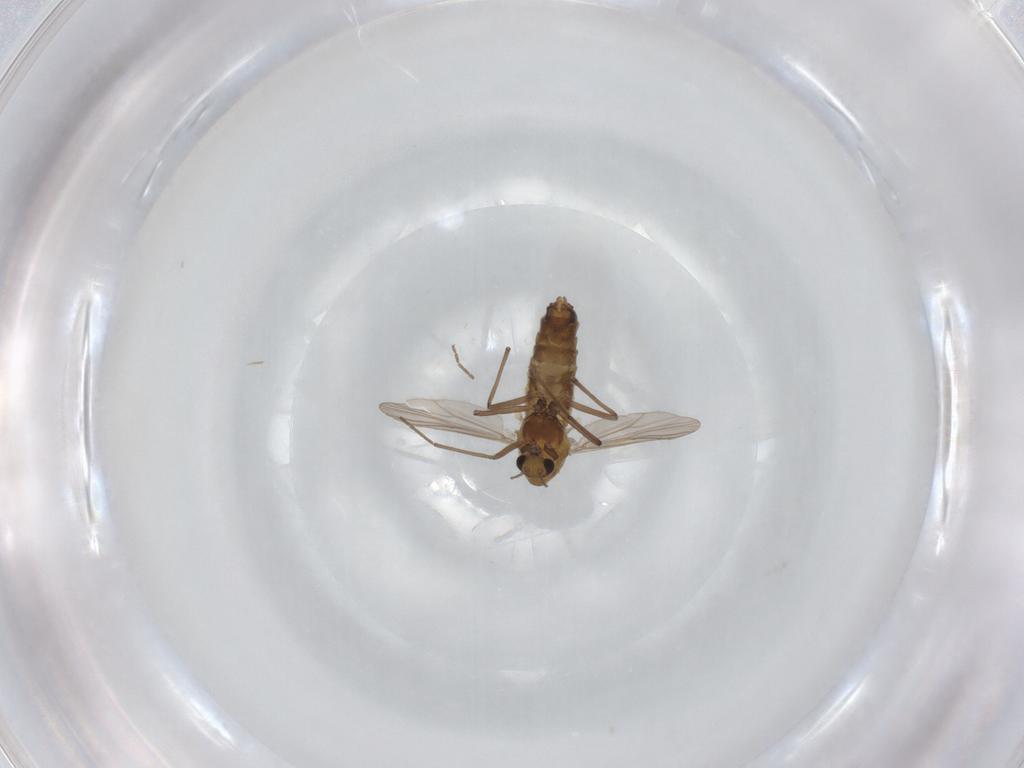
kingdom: Animalia
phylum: Arthropoda
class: Insecta
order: Diptera
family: Chironomidae
